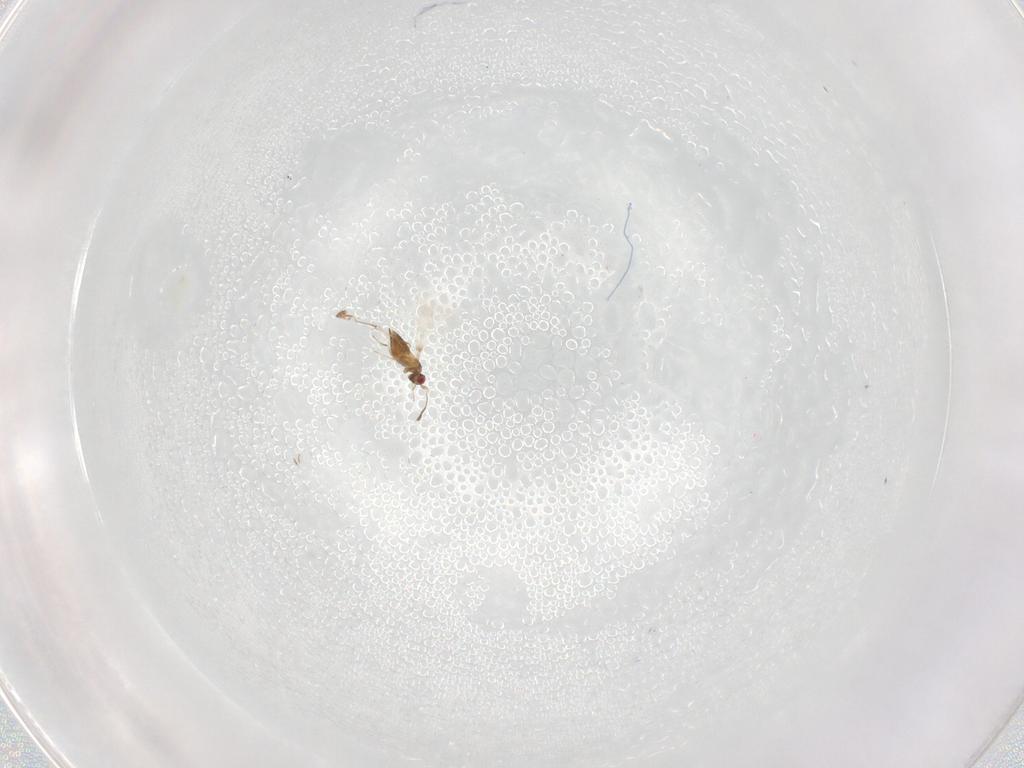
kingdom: Animalia
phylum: Arthropoda
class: Insecta
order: Hymenoptera
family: Mymaridae
